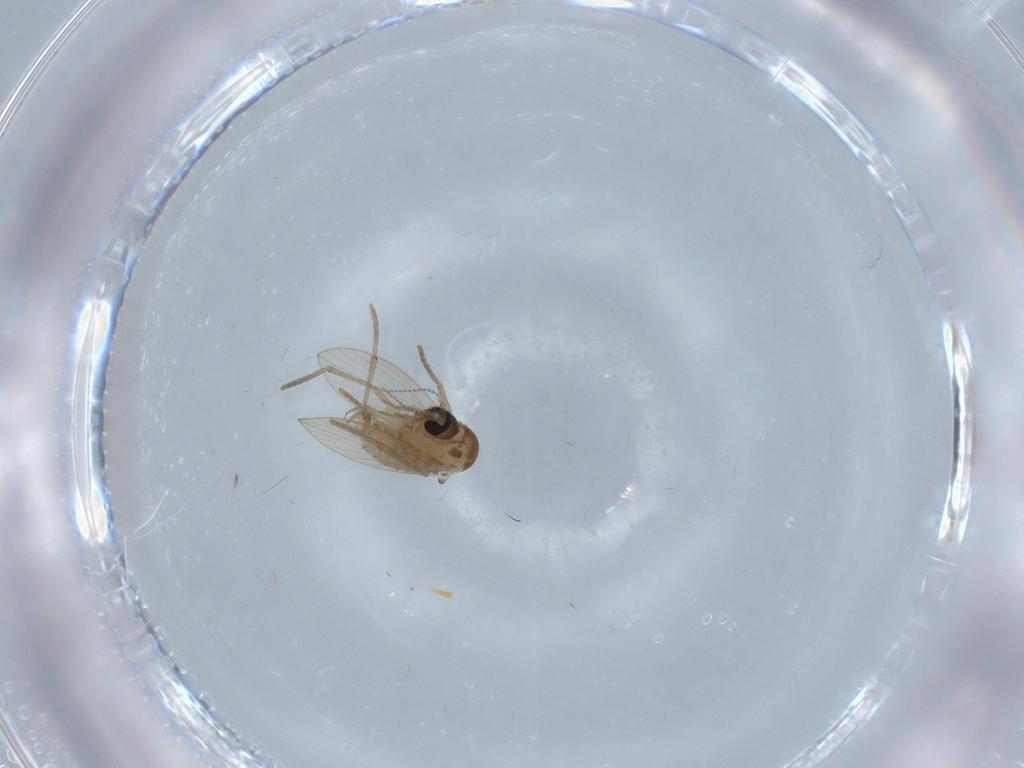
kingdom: Animalia
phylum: Arthropoda
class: Insecta
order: Diptera
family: Chironomidae
